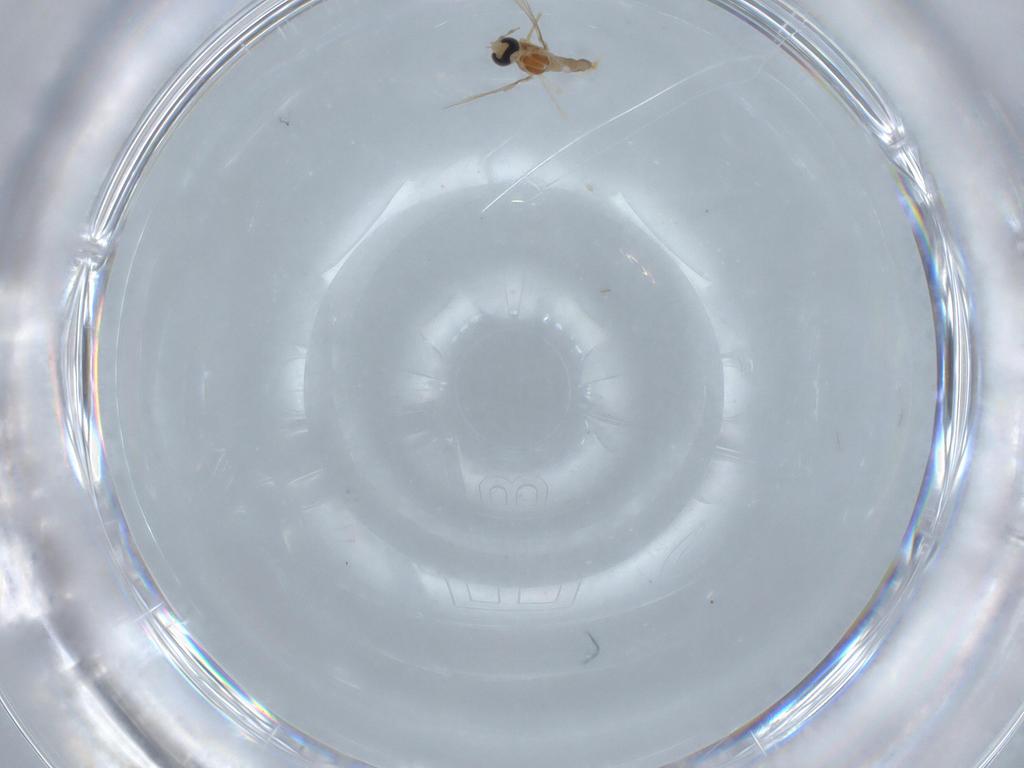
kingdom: Animalia
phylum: Arthropoda
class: Insecta
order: Diptera
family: Cecidomyiidae
